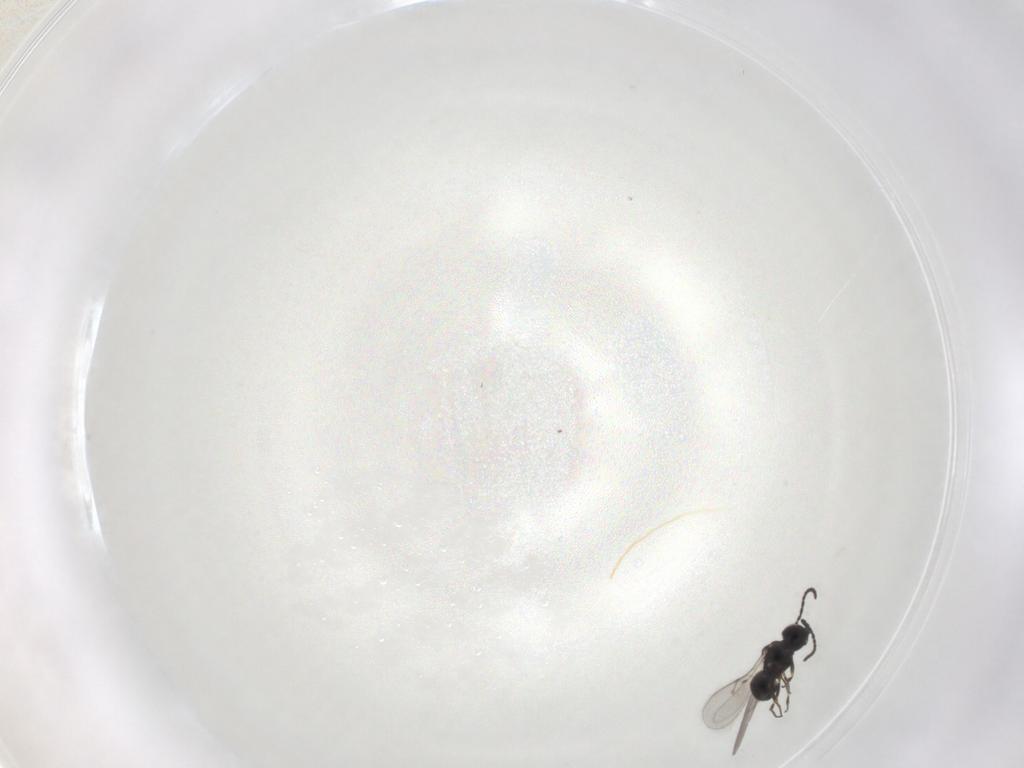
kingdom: Animalia
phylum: Arthropoda
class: Insecta
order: Hymenoptera
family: Scelionidae
